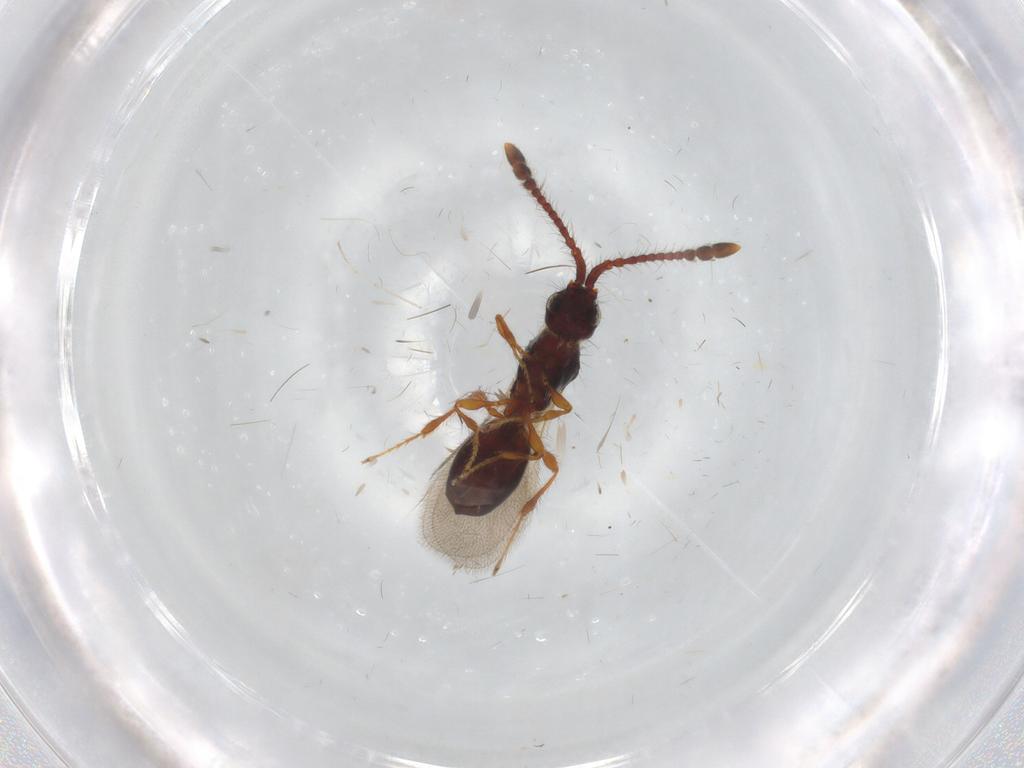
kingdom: Animalia
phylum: Arthropoda
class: Insecta
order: Hymenoptera
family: Diapriidae
